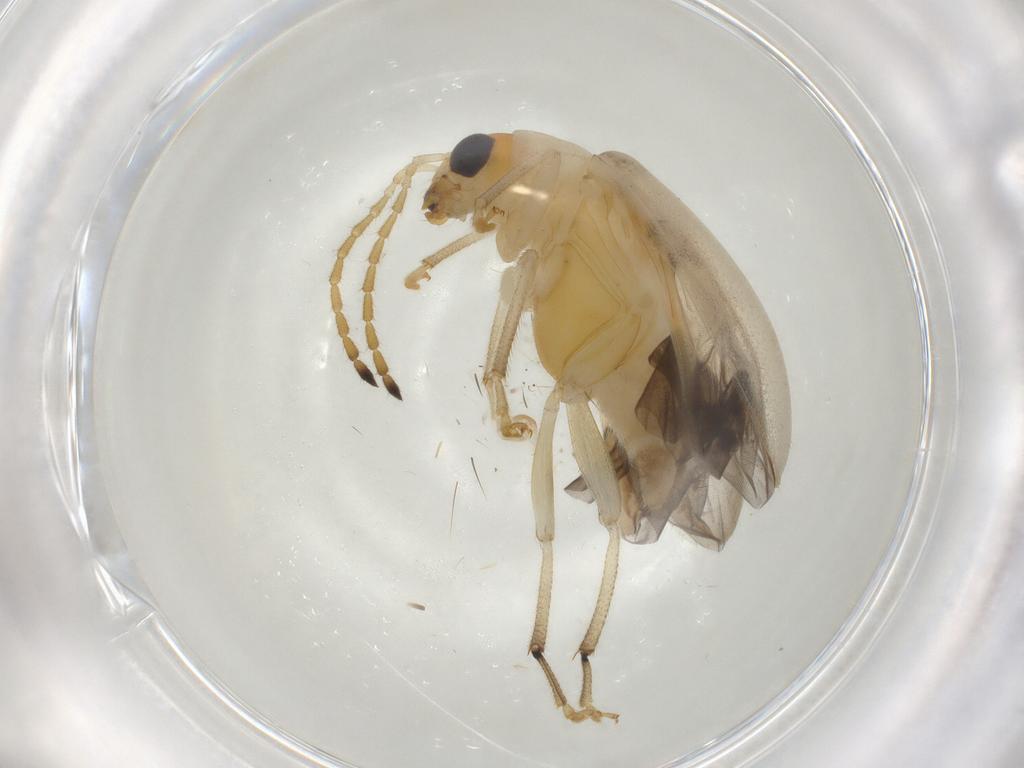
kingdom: Animalia
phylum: Arthropoda
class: Insecta
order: Coleoptera
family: Chrysomelidae
